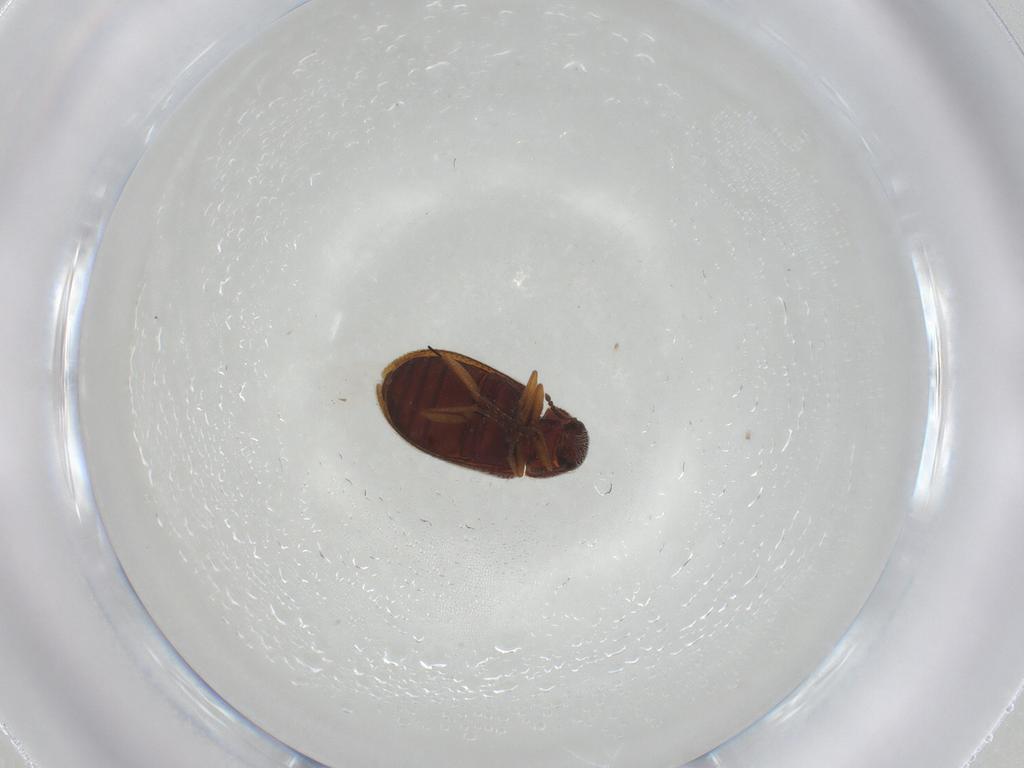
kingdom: Animalia
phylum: Arthropoda
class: Insecta
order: Coleoptera
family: Rhadalidae
